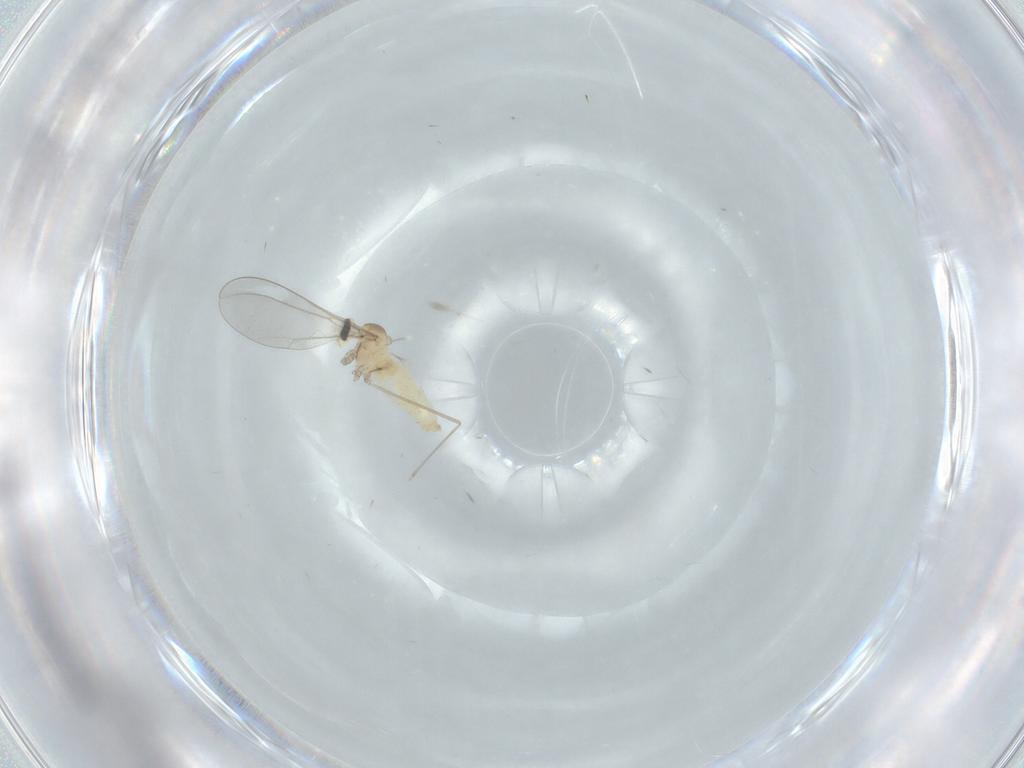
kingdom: Animalia
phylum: Arthropoda
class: Insecta
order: Diptera
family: Cecidomyiidae
